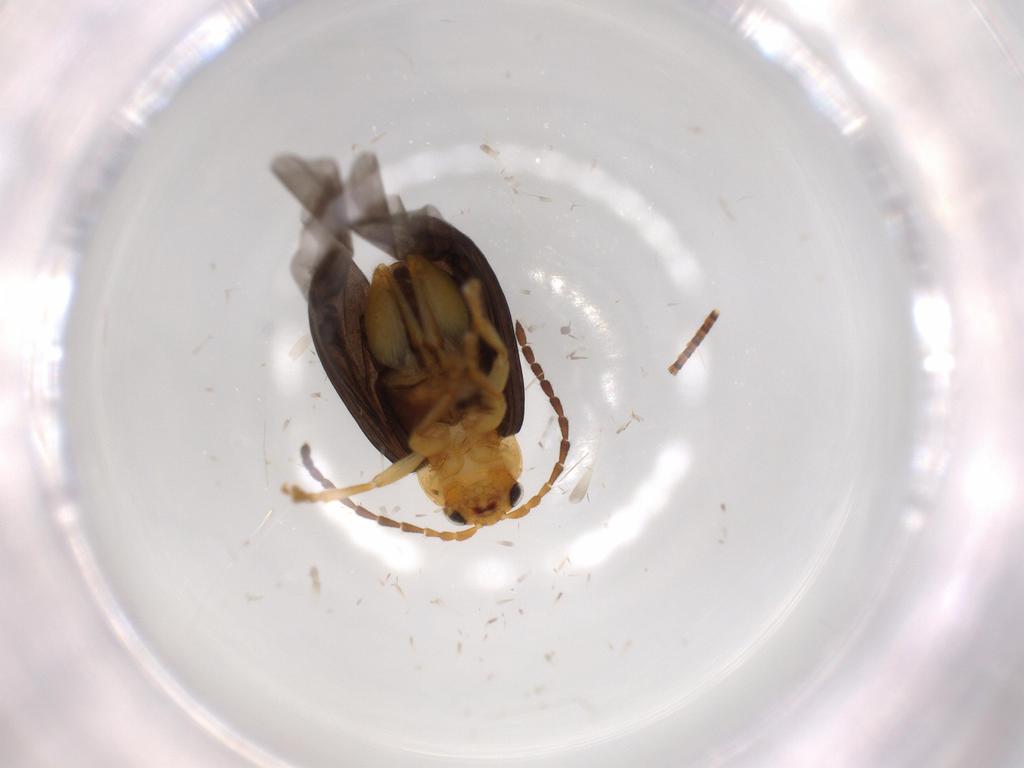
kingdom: Animalia
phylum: Arthropoda
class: Insecta
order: Coleoptera
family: Chrysomelidae
